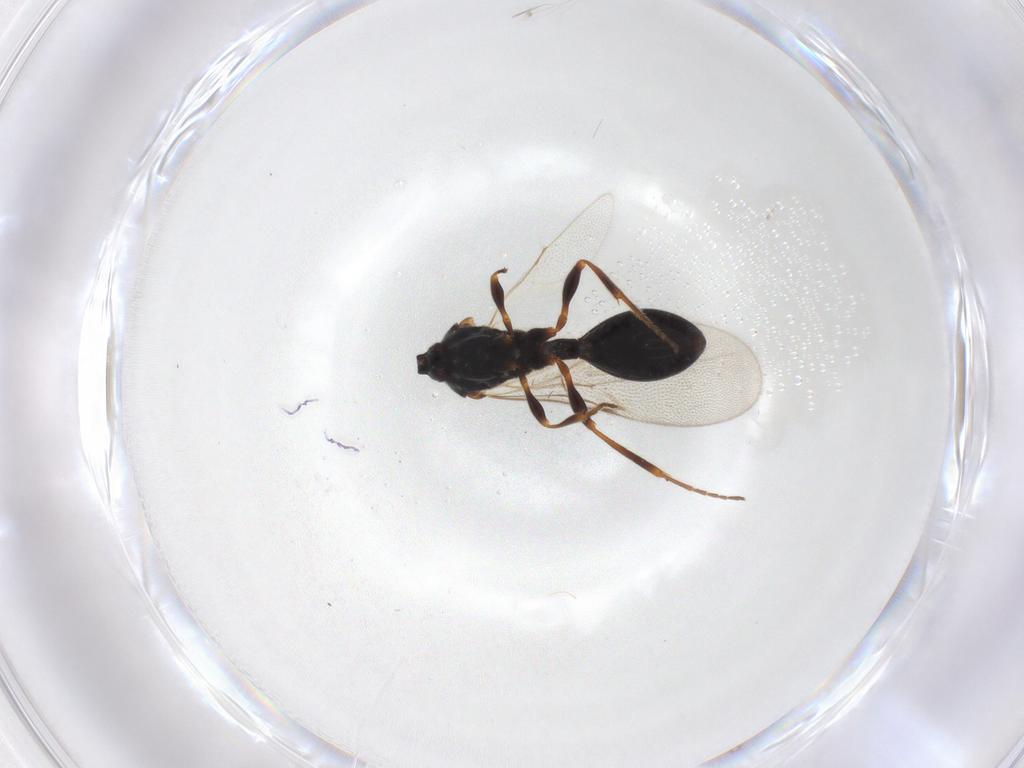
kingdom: Animalia
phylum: Arthropoda
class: Insecta
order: Hymenoptera
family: Diapriidae
